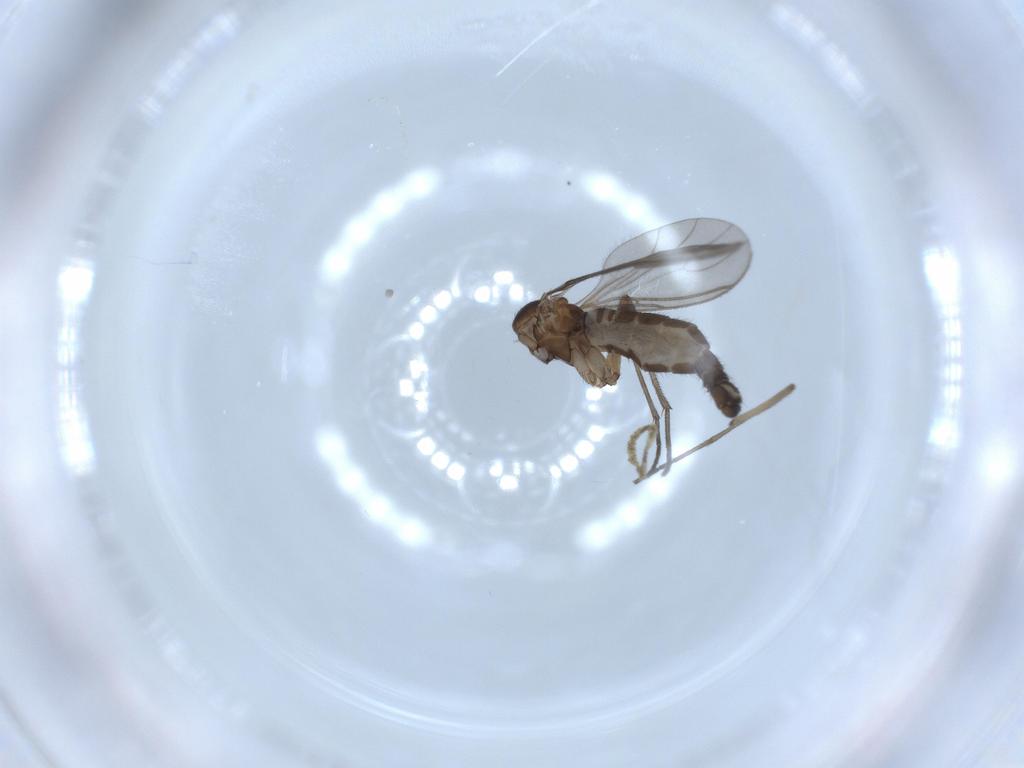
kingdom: Animalia
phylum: Arthropoda
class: Insecta
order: Diptera
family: Sciaridae
